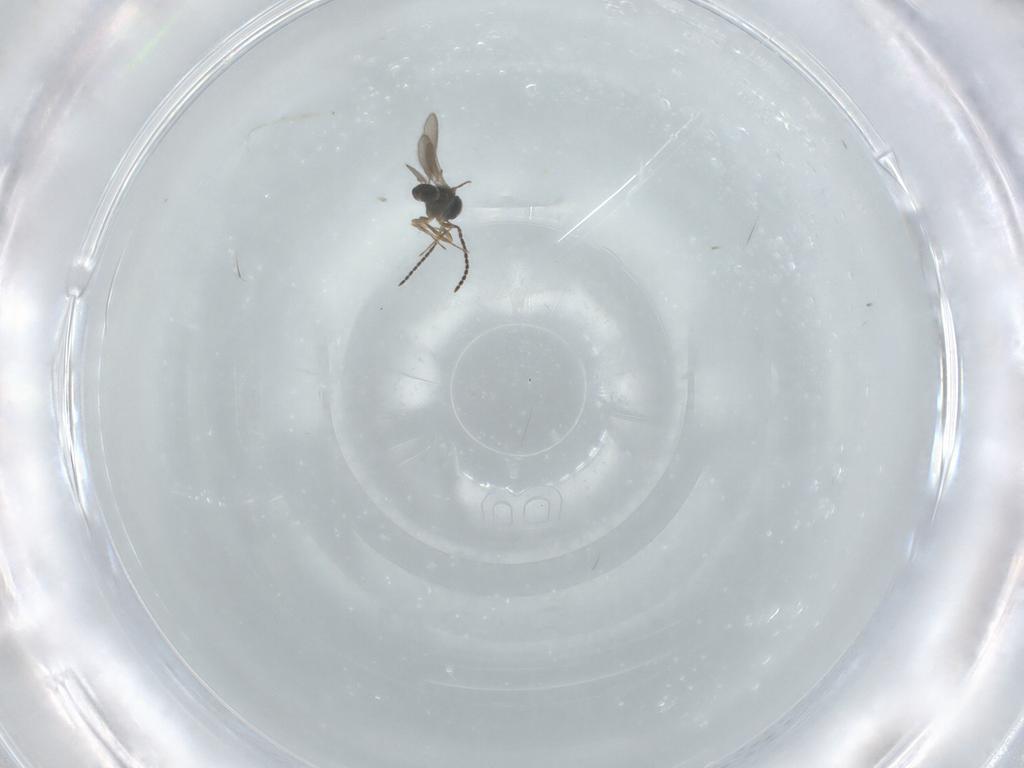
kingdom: Animalia
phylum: Arthropoda
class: Insecta
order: Hymenoptera
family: Scelionidae
